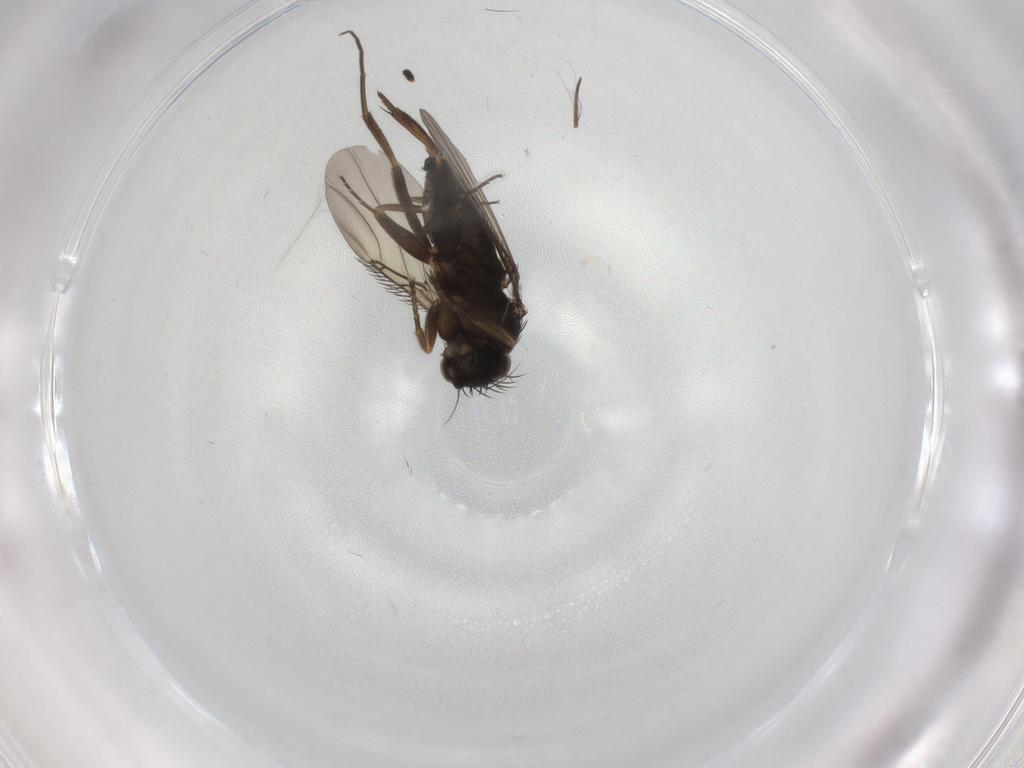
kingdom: Animalia
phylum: Arthropoda
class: Insecta
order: Diptera
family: Phoridae
